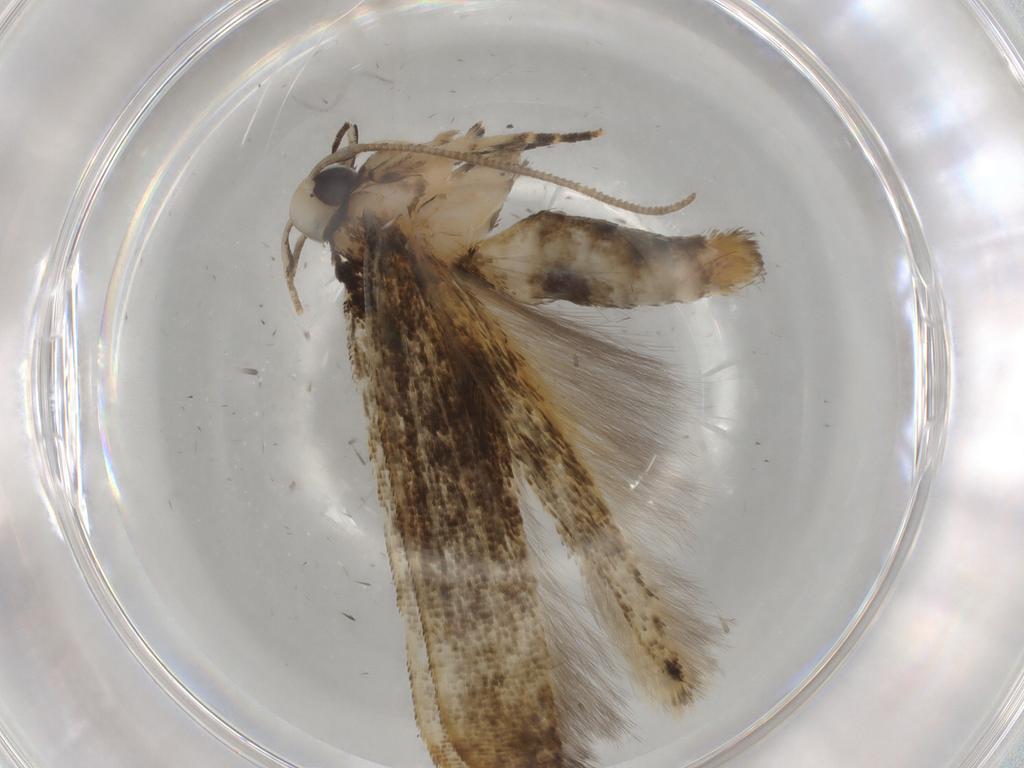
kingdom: Animalia
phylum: Arthropoda
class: Insecta
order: Lepidoptera
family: Cosmopterigidae
